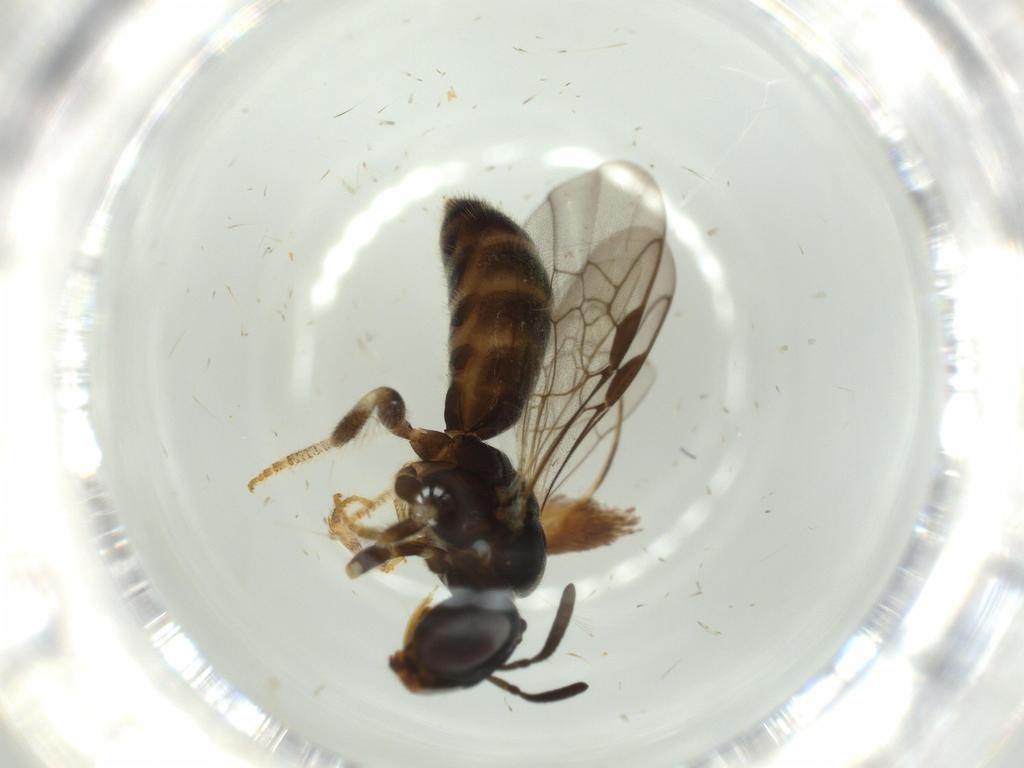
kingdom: Animalia
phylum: Arthropoda
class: Insecta
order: Hymenoptera
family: Apidae
